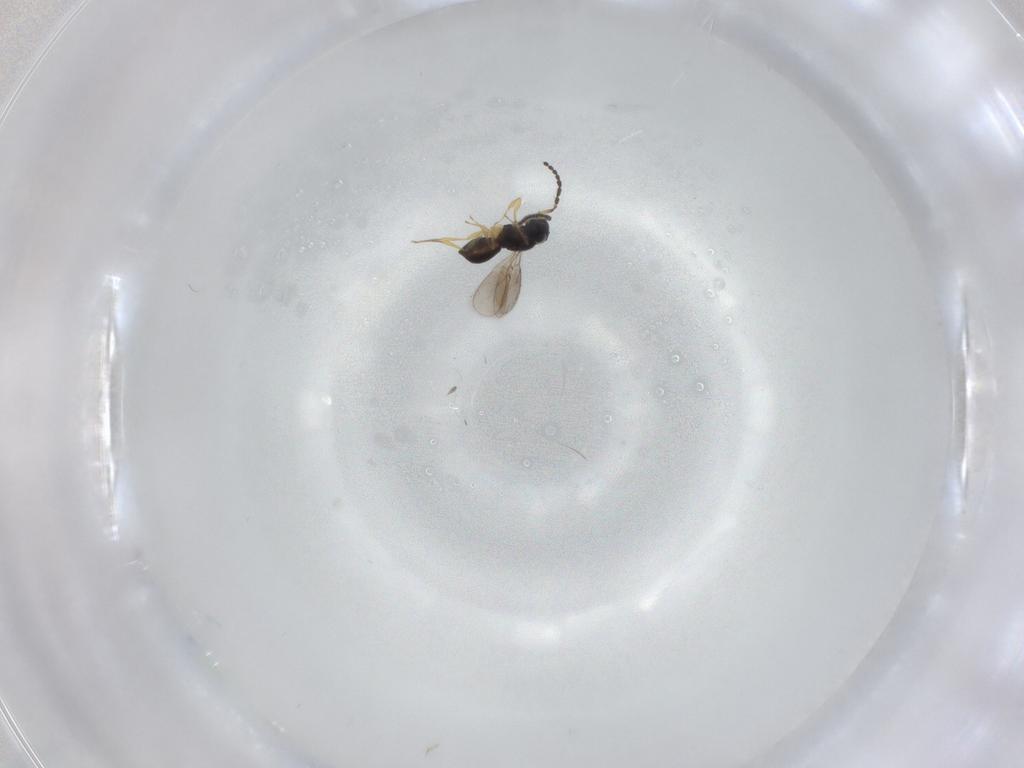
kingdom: Animalia
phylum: Arthropoda
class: Insecta
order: Hymenoptera
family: Scelionidae
